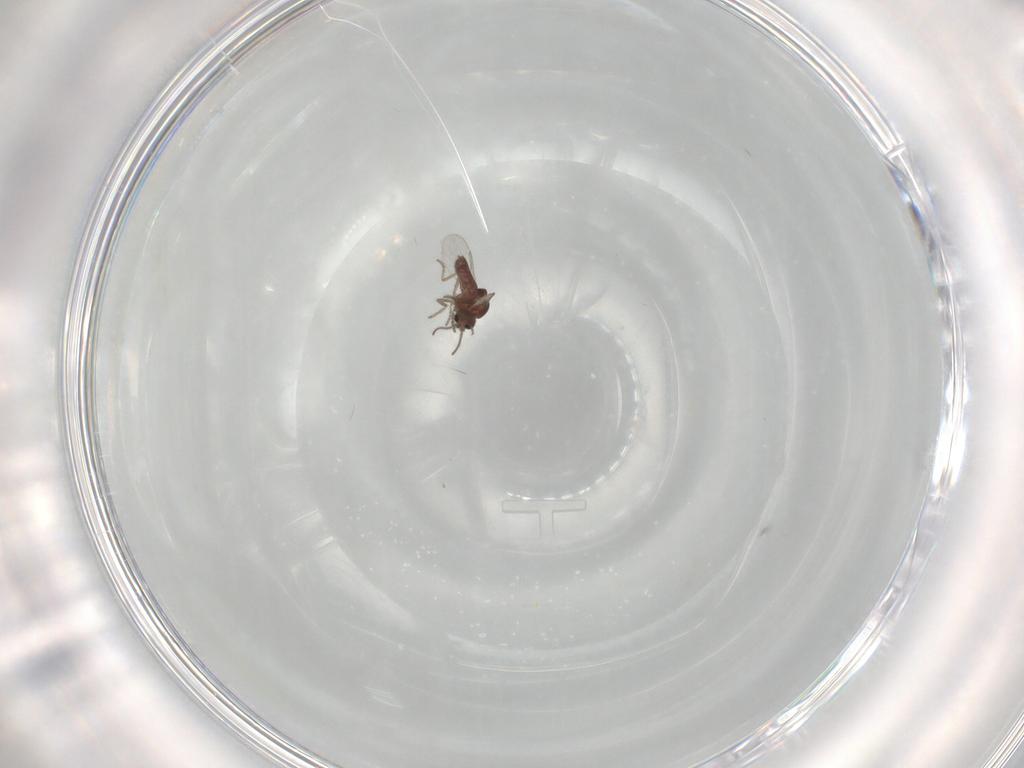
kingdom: Animalia
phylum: Arthropoda
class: Insecta
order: Diptera
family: Ceratopogonidae
